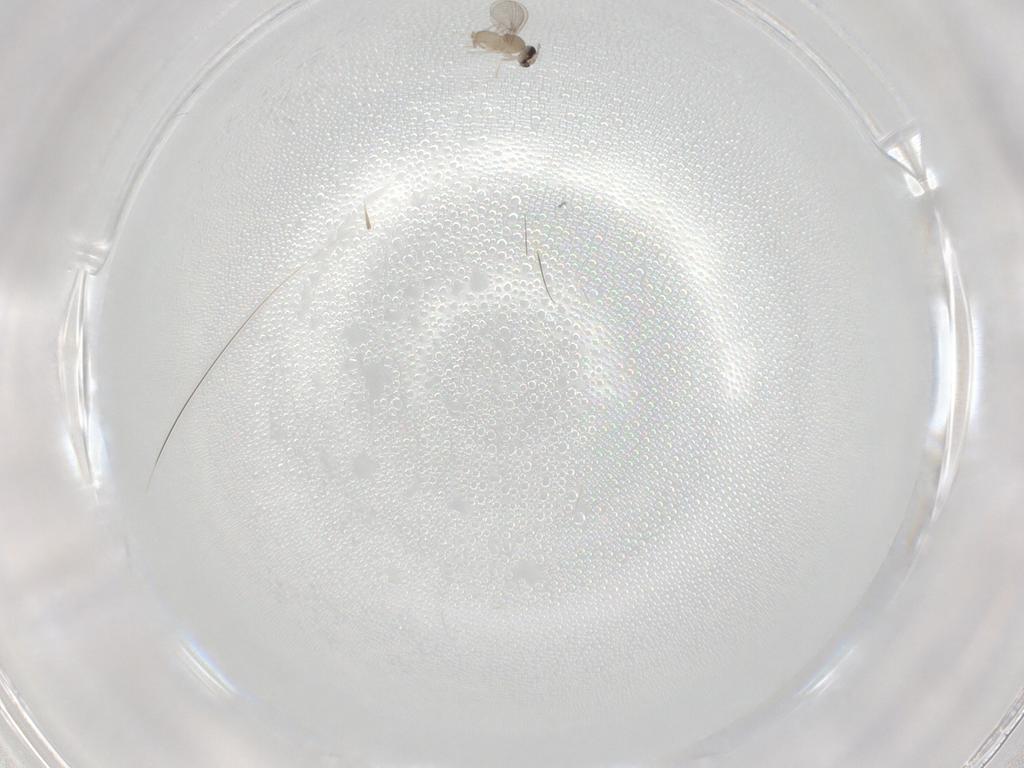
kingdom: Animalia
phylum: Arthropoda
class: Insecta
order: Diptera
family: Cecidomyiidae
